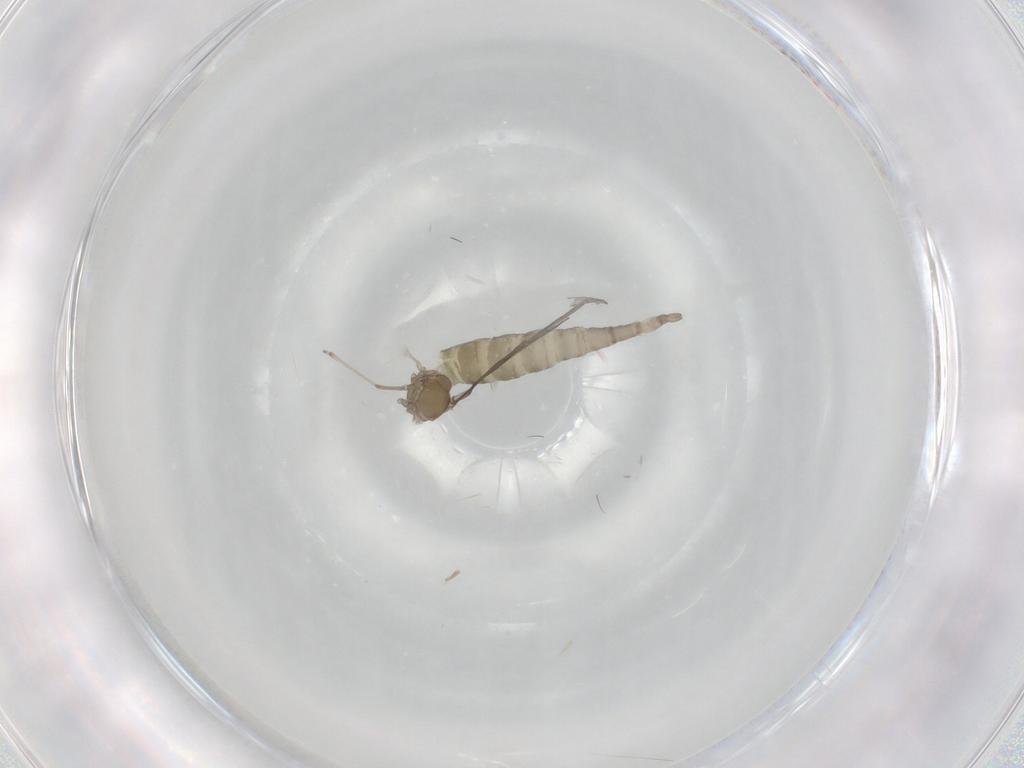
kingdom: Animalia
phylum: Arthropoda
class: Insecta
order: Diptera
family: Cecidomyiidae
